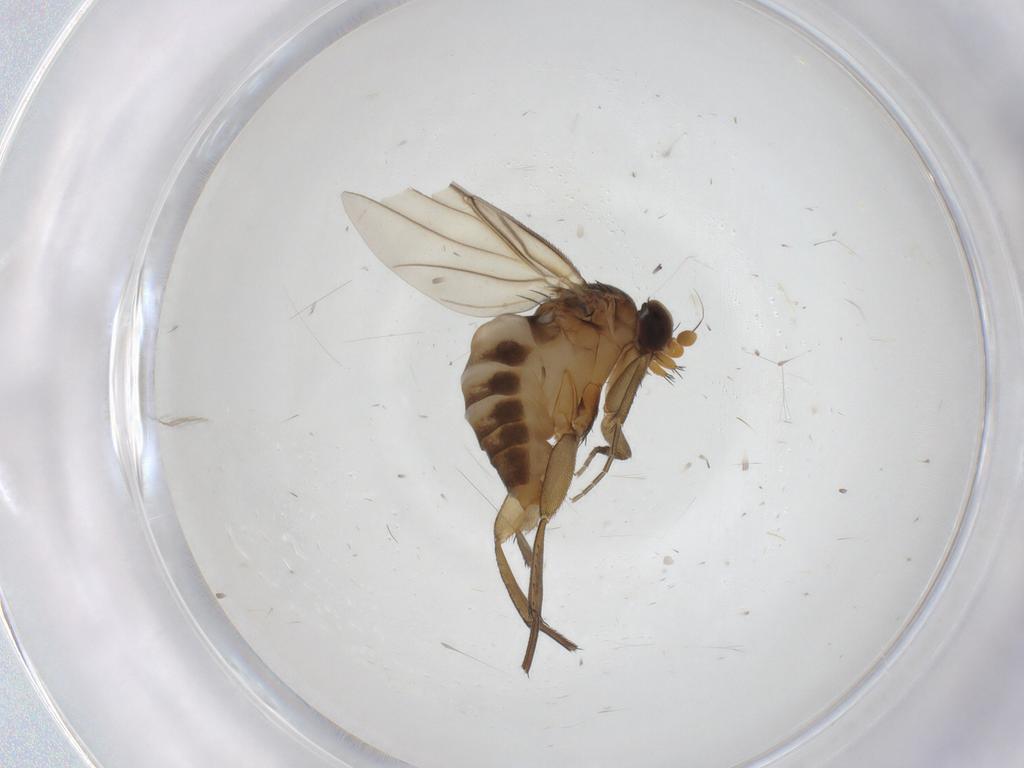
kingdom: Animalia
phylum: Arthropoda
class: Insecta
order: Diptera
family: Phoridae
